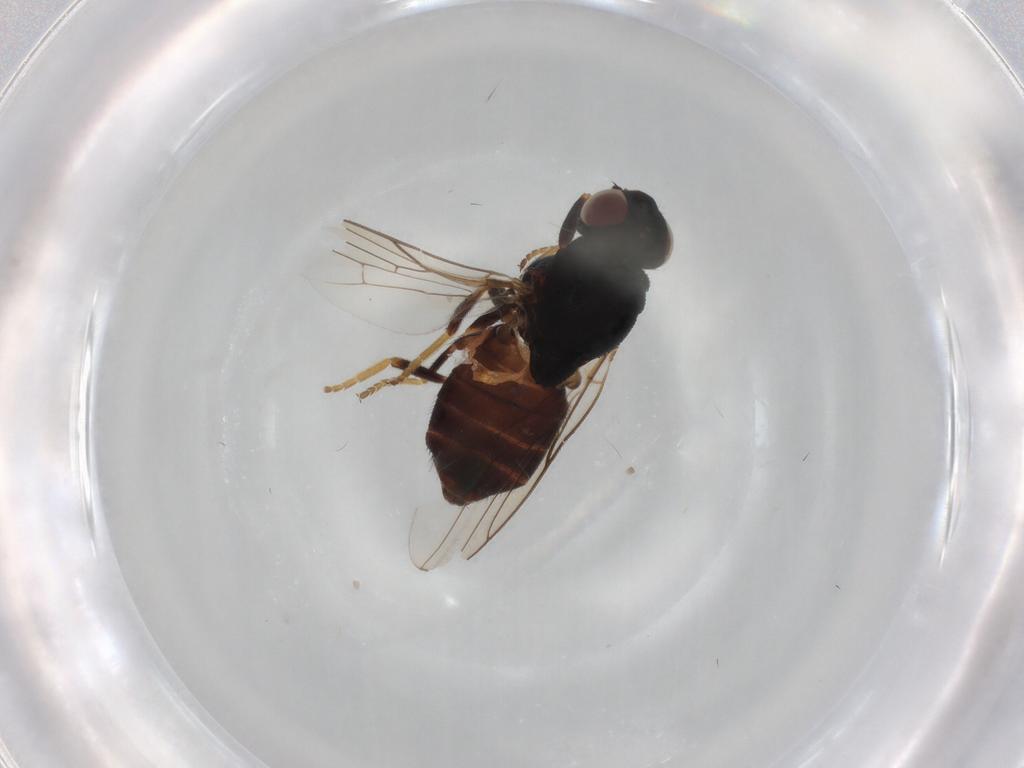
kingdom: Animalia
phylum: Arthropoda
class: Insecta
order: Diptera
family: Chloropidae
